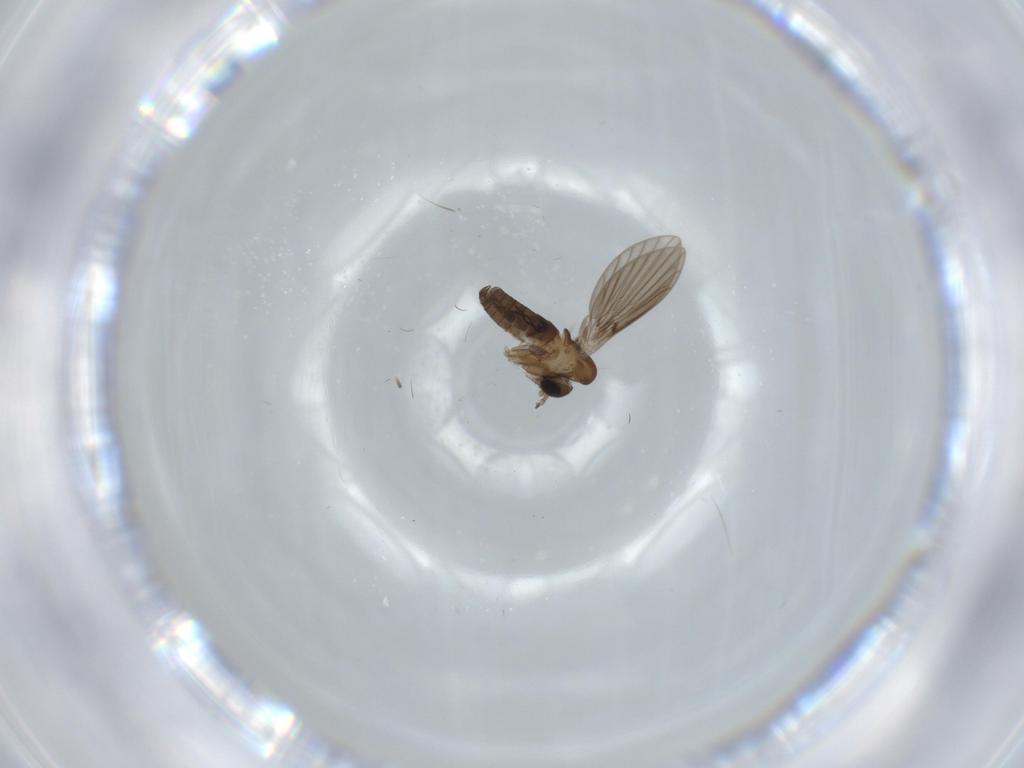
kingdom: Animalia
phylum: Arthropoda
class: Insecta
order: Diptera
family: Psychodidae
